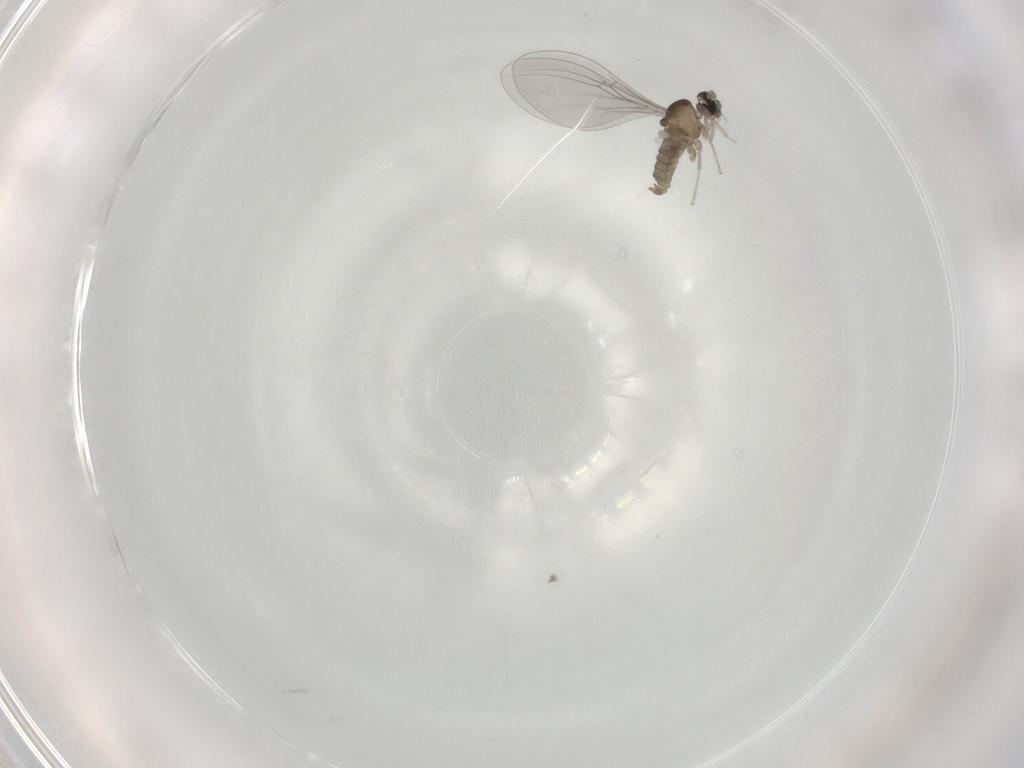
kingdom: Animalia
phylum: Arthropoda
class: Insecta
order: Diptera
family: Cecidomyiidae
